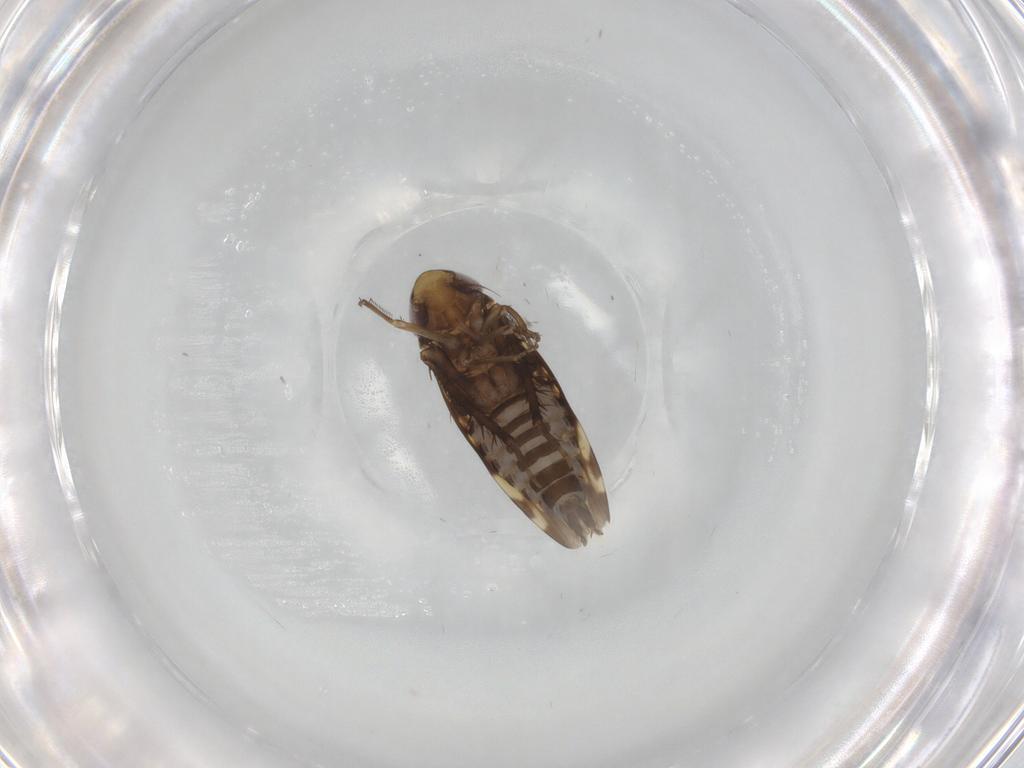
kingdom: Animalia
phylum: Arthropoda
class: Insecta
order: Hemiptera
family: Cicadellidae
